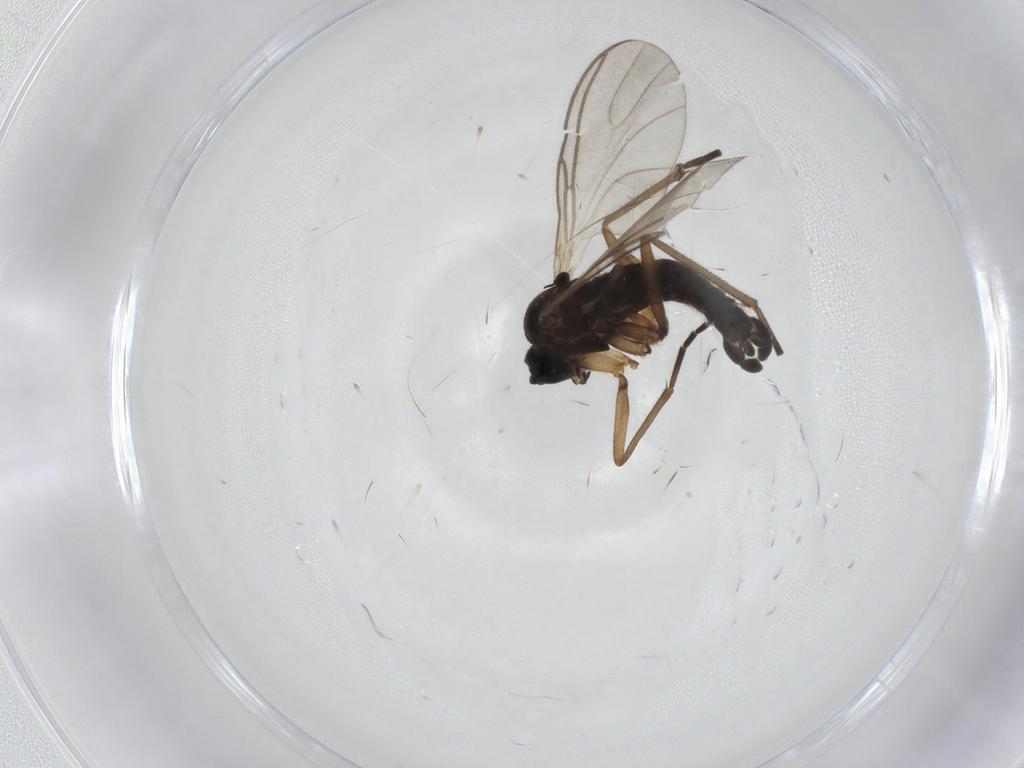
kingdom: Animalia
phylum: Arthropoda
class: Insecta
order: Diptera
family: Sciaridae
